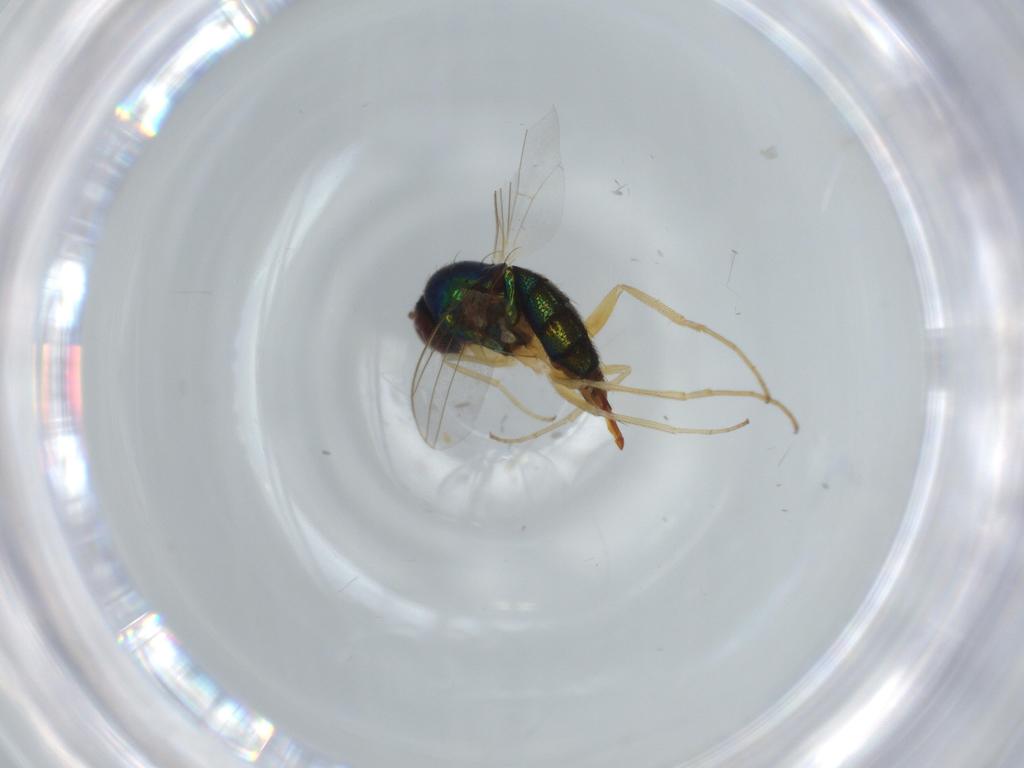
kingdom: Animalia
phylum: Arthropoda
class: Insecta
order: Diptera
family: Dolichopodidae
